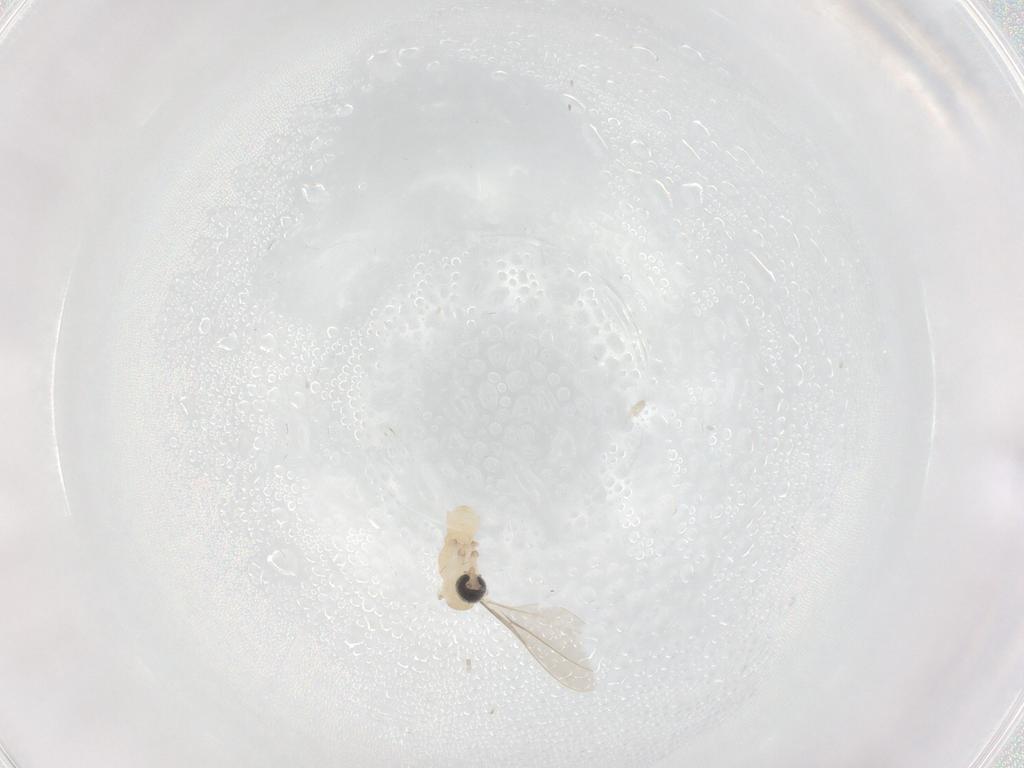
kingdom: Animalia
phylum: Arthropoda
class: Insecta
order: Diptera
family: Cecidomyiidae
